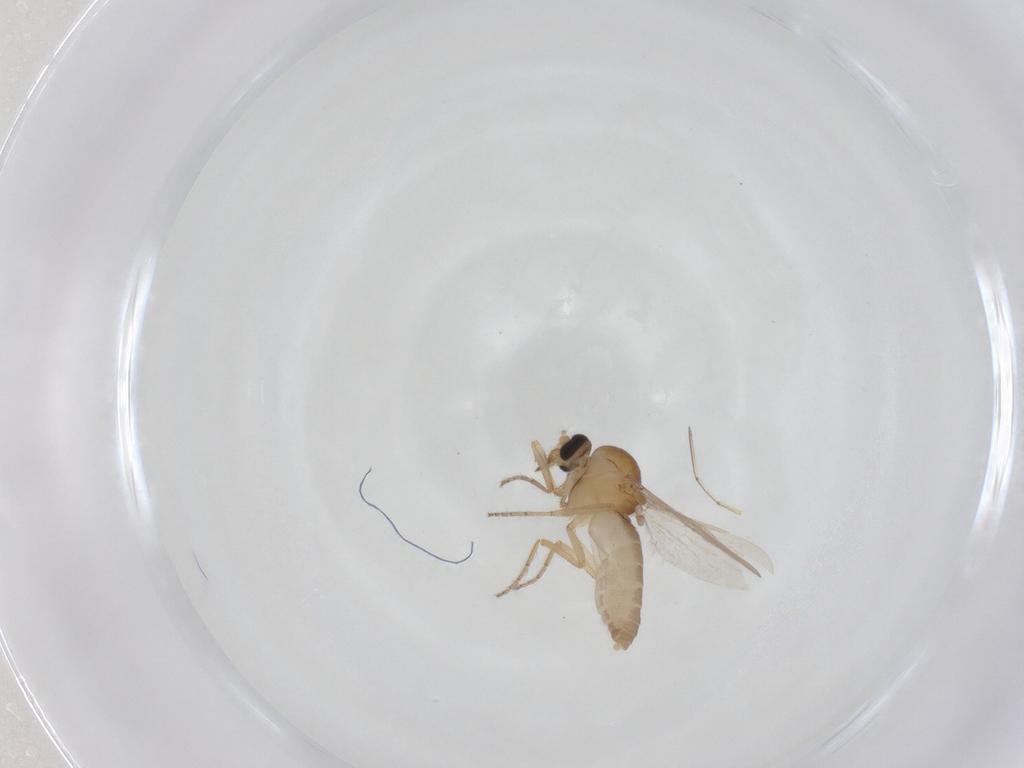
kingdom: Animalia
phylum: Arthropoda
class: Insecta
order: Diptera
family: Ceratopogonidae
